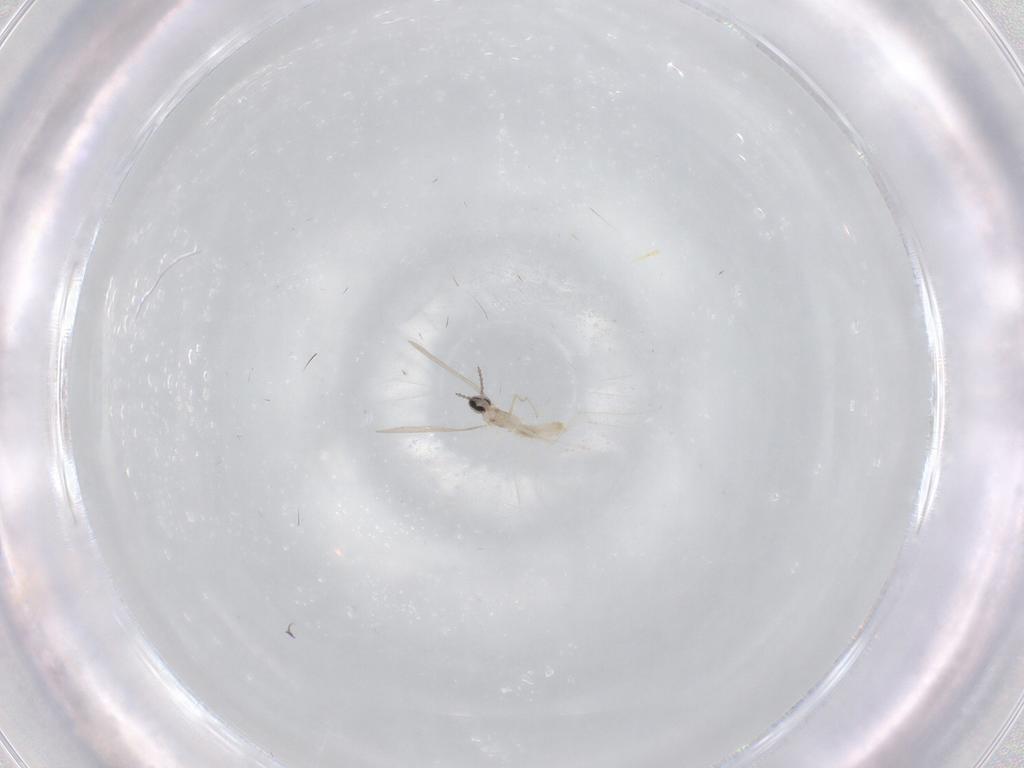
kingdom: Animalia
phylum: Arthropoda
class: Insecta
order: Diptera
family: Cecidomyiidae
